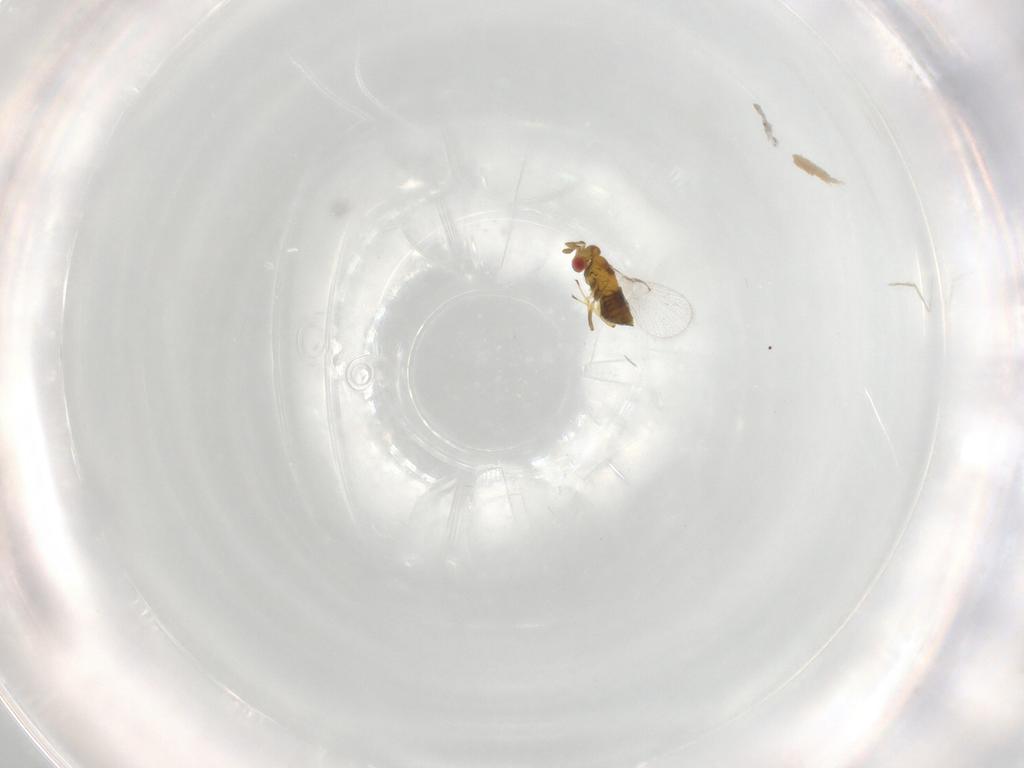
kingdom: Animalia
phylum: Arthropoda
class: Insecta
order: Hymenoptera
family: Trichogrammatidae
